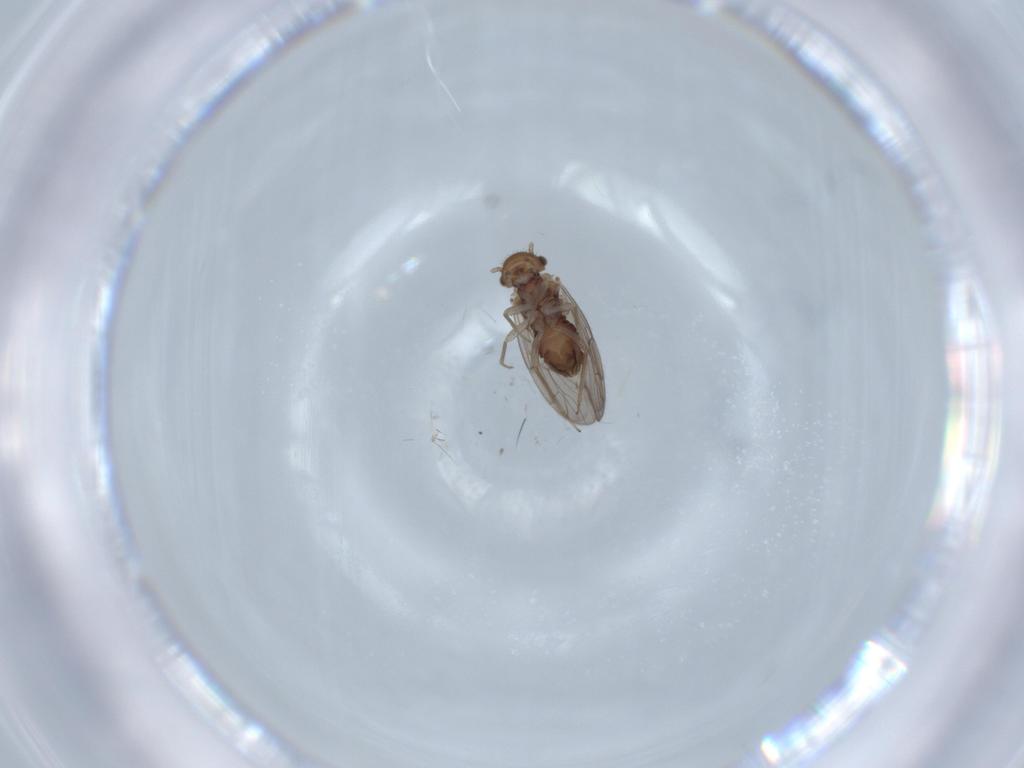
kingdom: Animalia
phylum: Arthropoda
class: Insecta
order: Psocodea
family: Ectopsocidae
